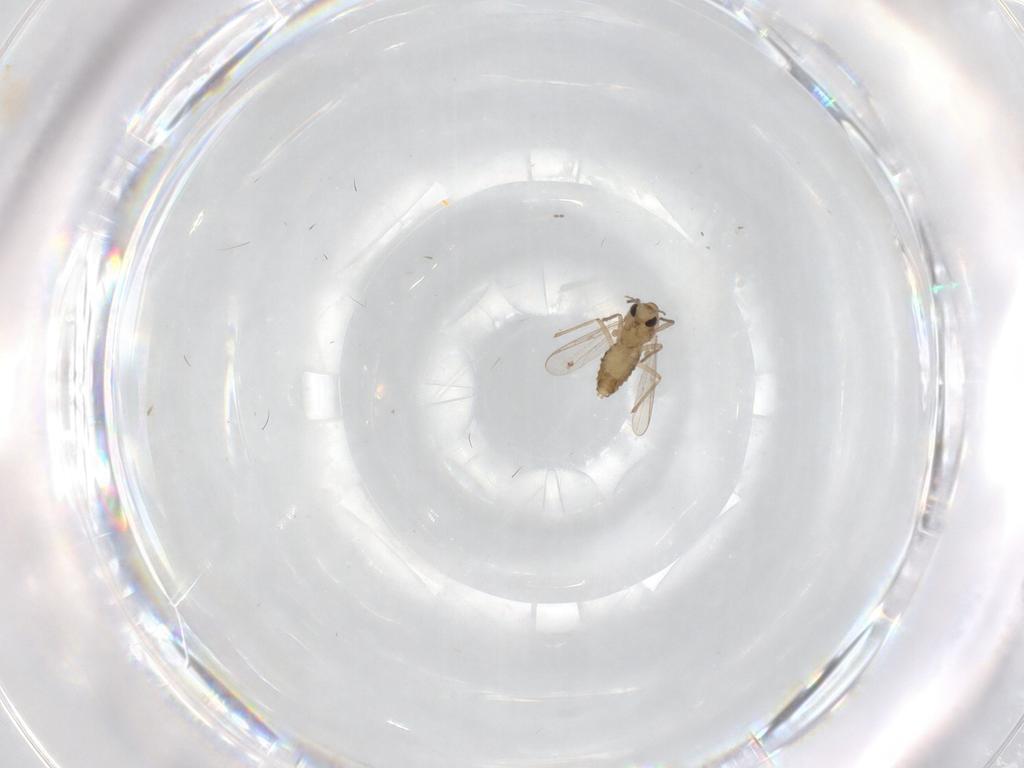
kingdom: Animalia
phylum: Arthropoda
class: Insecta
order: Diptera
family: Chironomidae
